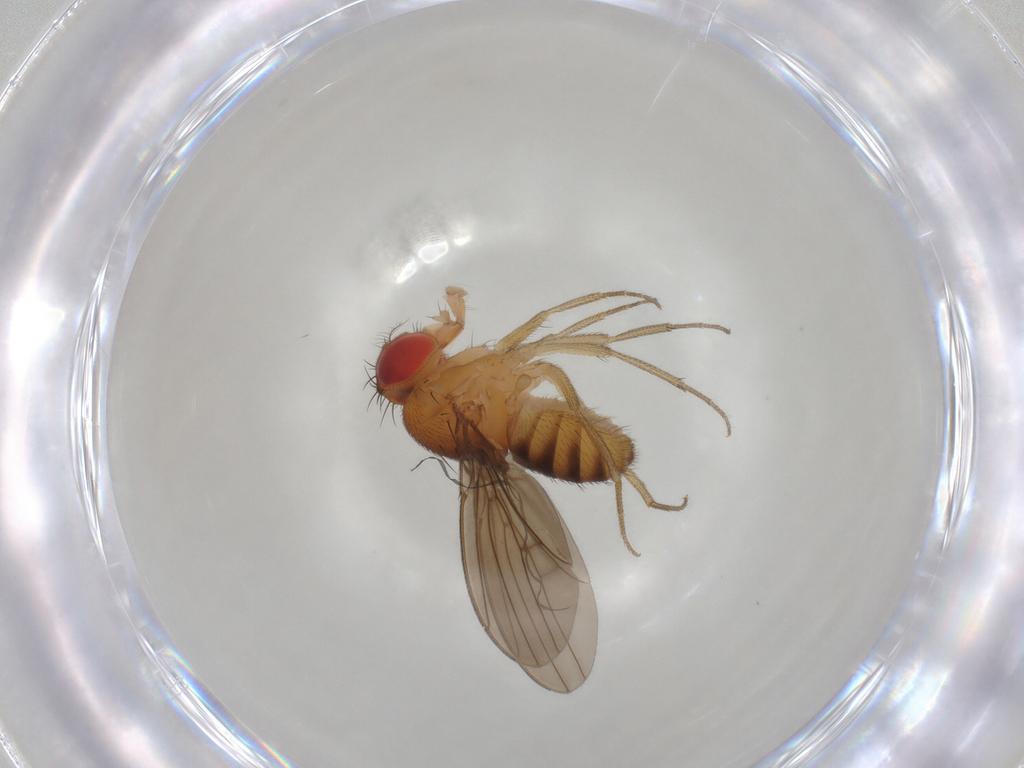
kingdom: Animalia
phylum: Arthropoda
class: Insecta
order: Diptera
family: Drosophilidae
